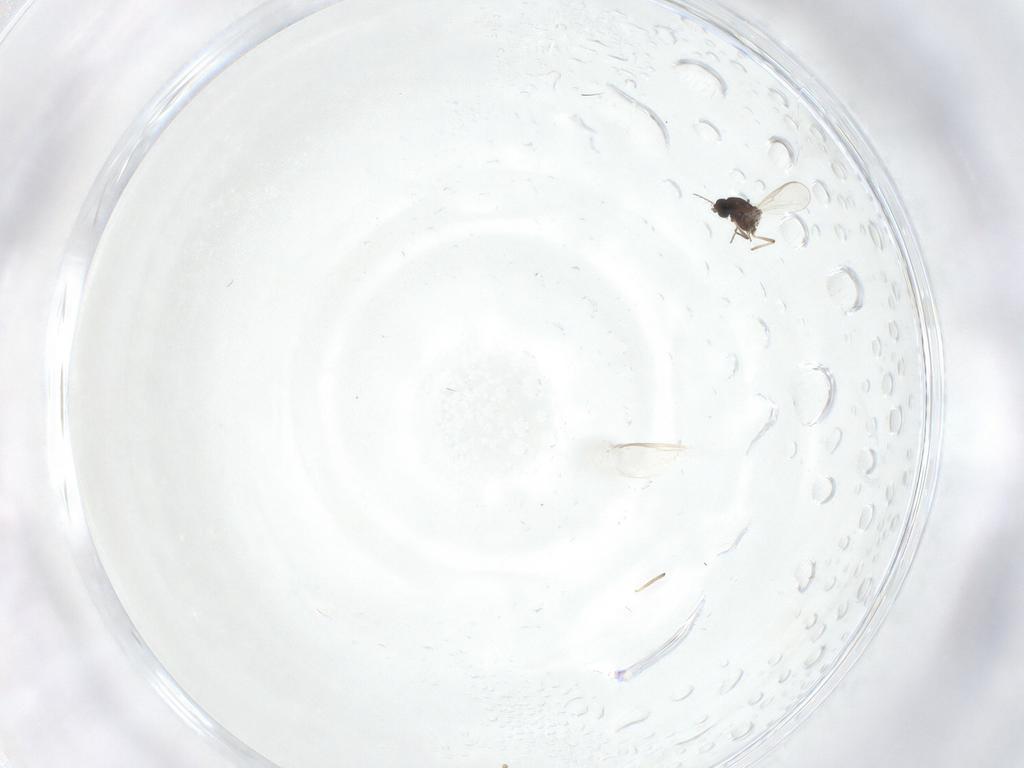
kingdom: Animalia
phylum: Arthropoda
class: Insecta
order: Diptera
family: Chironomidae
